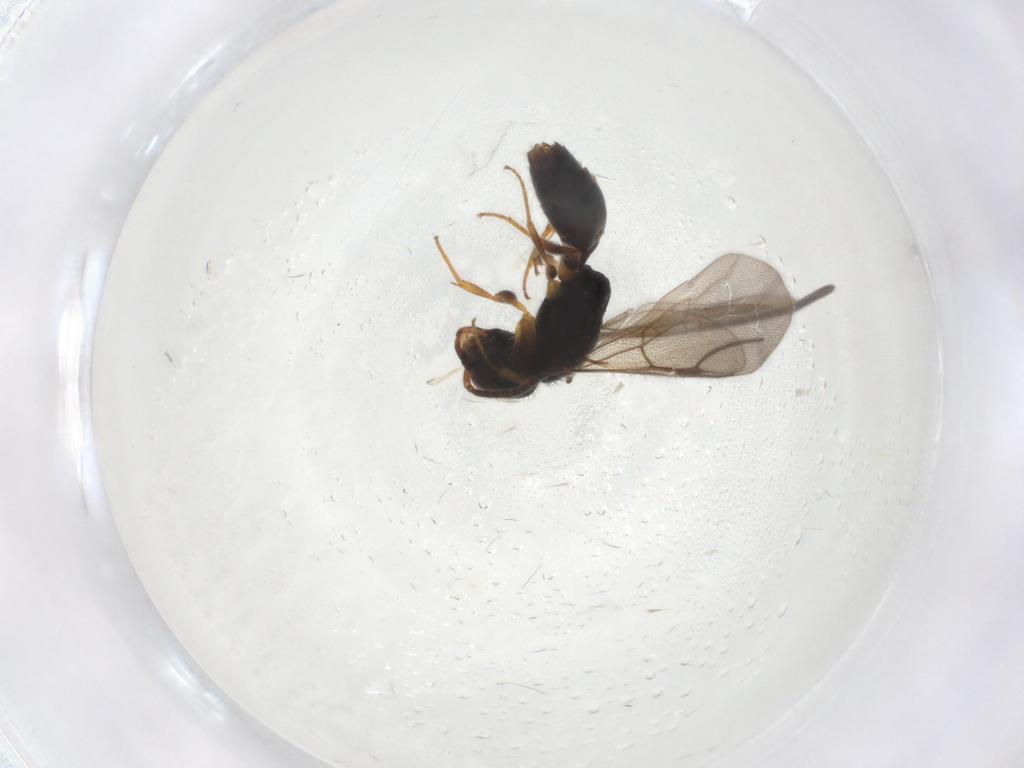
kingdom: Animalia
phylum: Arthropoda
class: Insecta
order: Hymenoptera
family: Bethylidae
